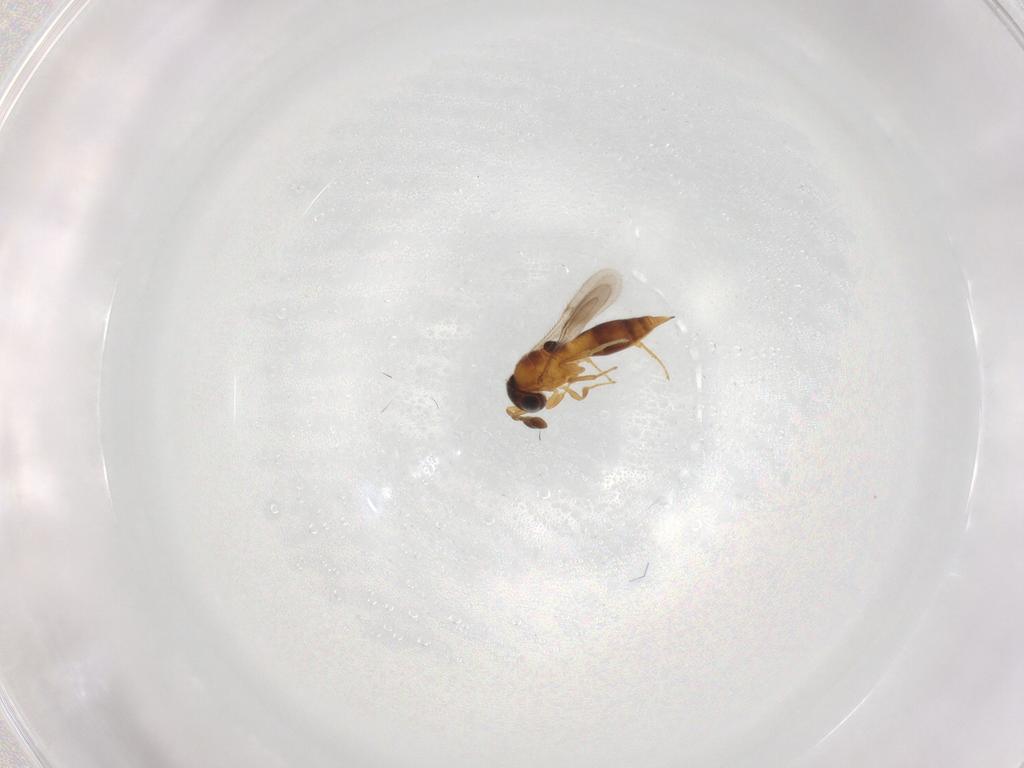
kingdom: Animalia
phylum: Arthropoda
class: Insecta
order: Hymenoptera
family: Scelionidae
